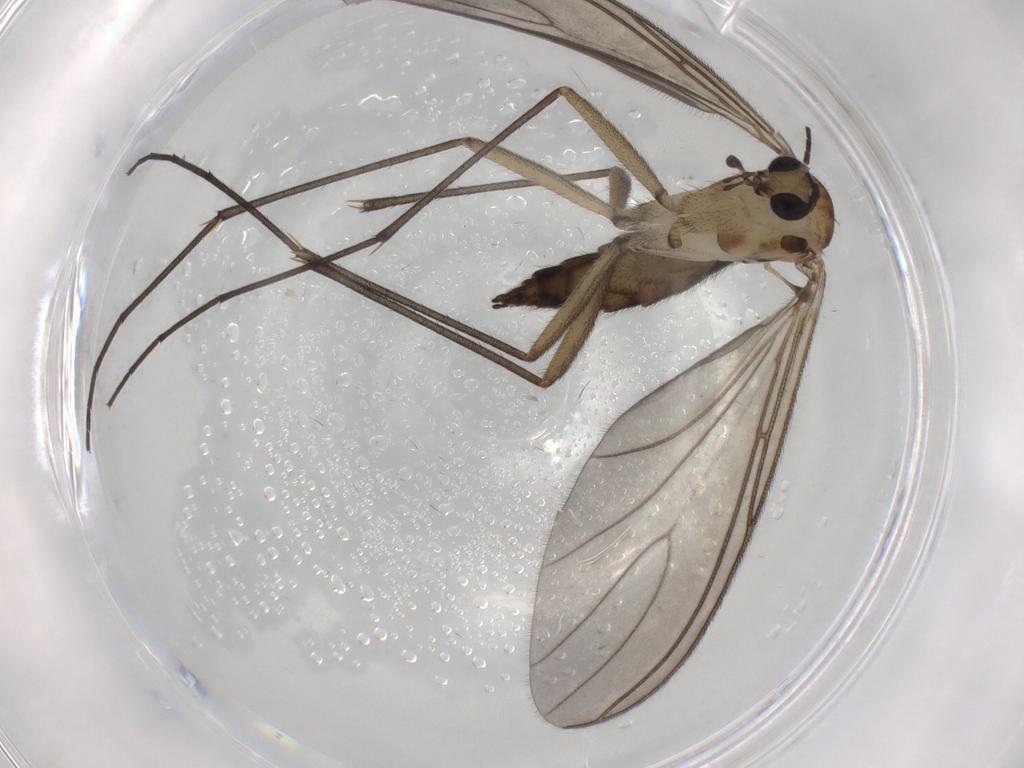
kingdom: Animalia
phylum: Arthropoda
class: Insecta
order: Diptera
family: Sciaridae
